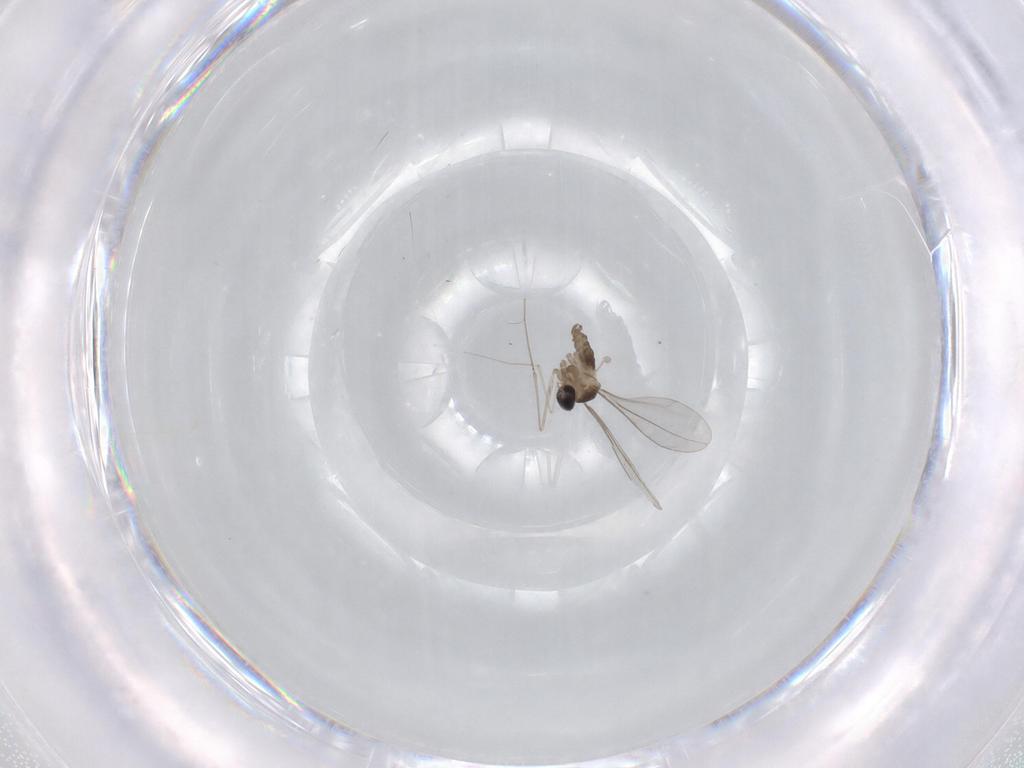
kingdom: Animalia
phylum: Arthropoda
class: Insecta
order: Diptera
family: Cecidomyiidae
